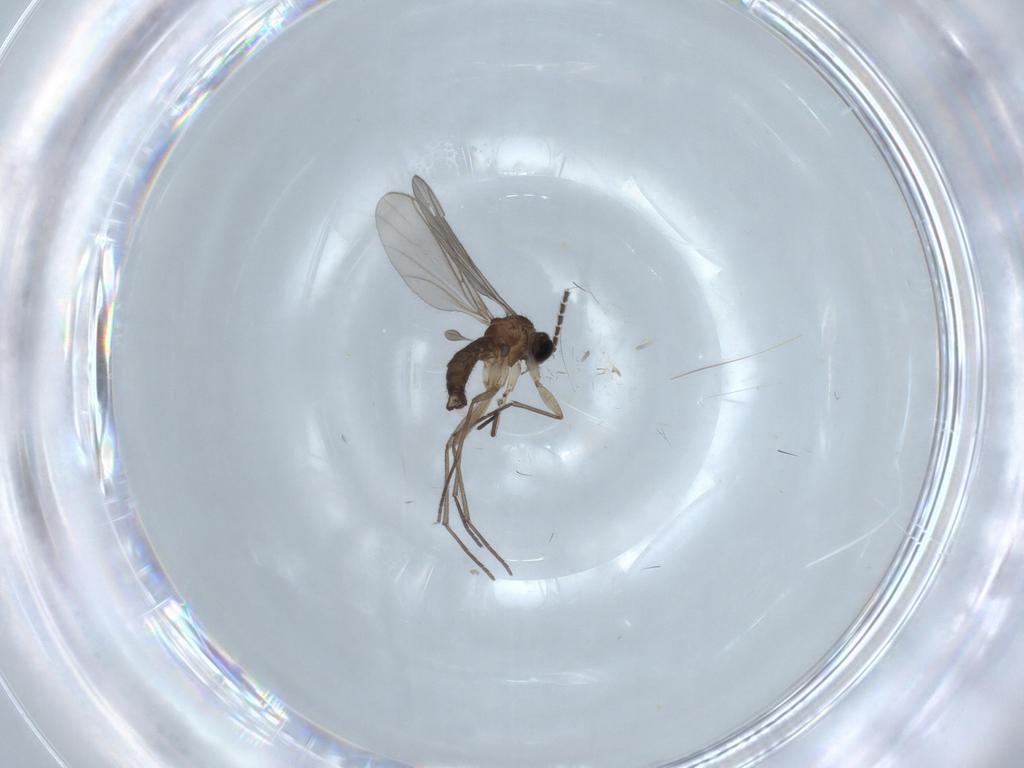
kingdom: Animalia
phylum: Arthropoda
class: Insecta
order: Diptera
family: Sciaridae
